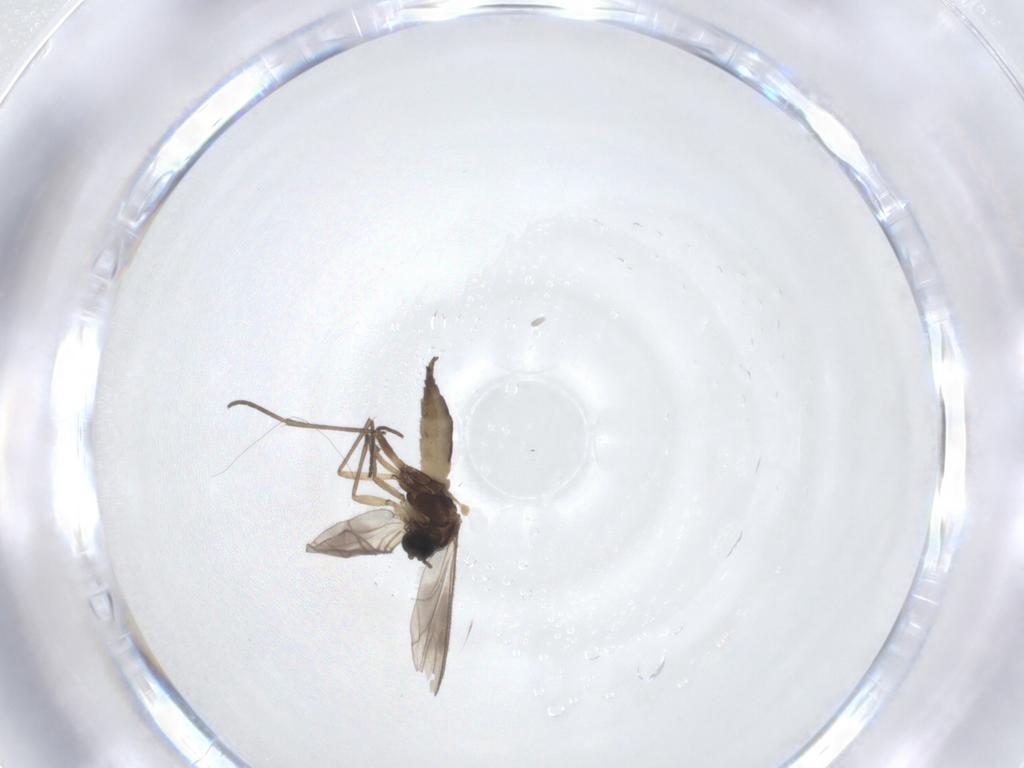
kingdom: Animalia
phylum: Arthropoda
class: Insecta
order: Diptera
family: Sciaridae
